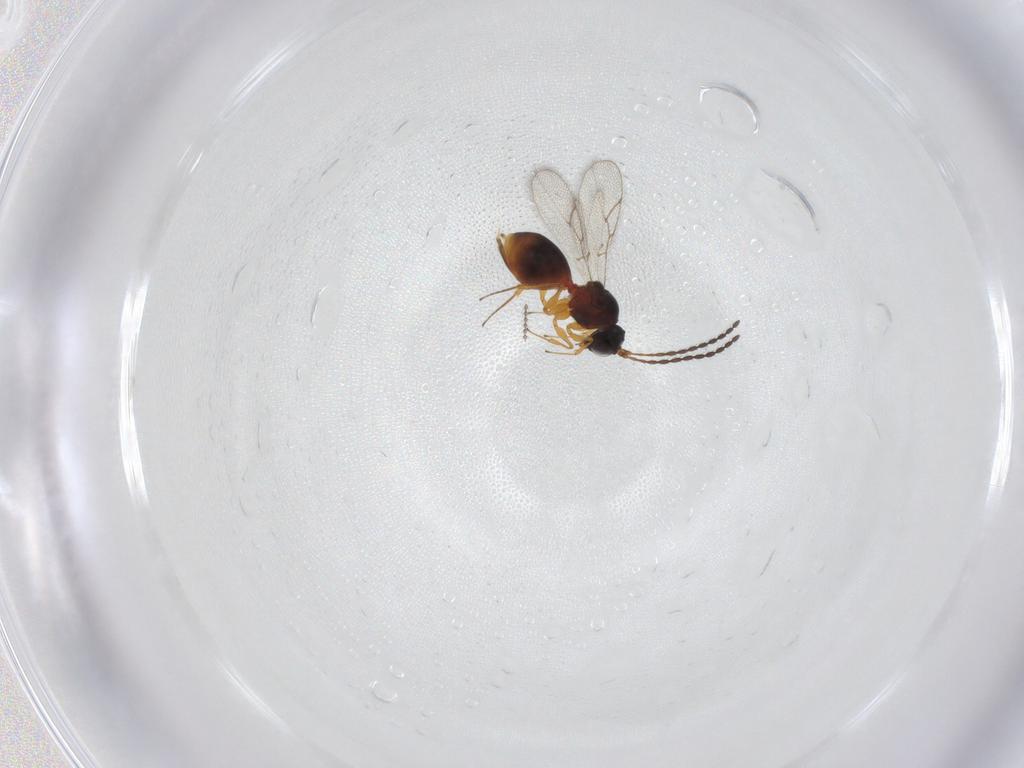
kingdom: Animalia
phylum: Arthropoda
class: Insecta
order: Hymenoptera
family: Figitidae
